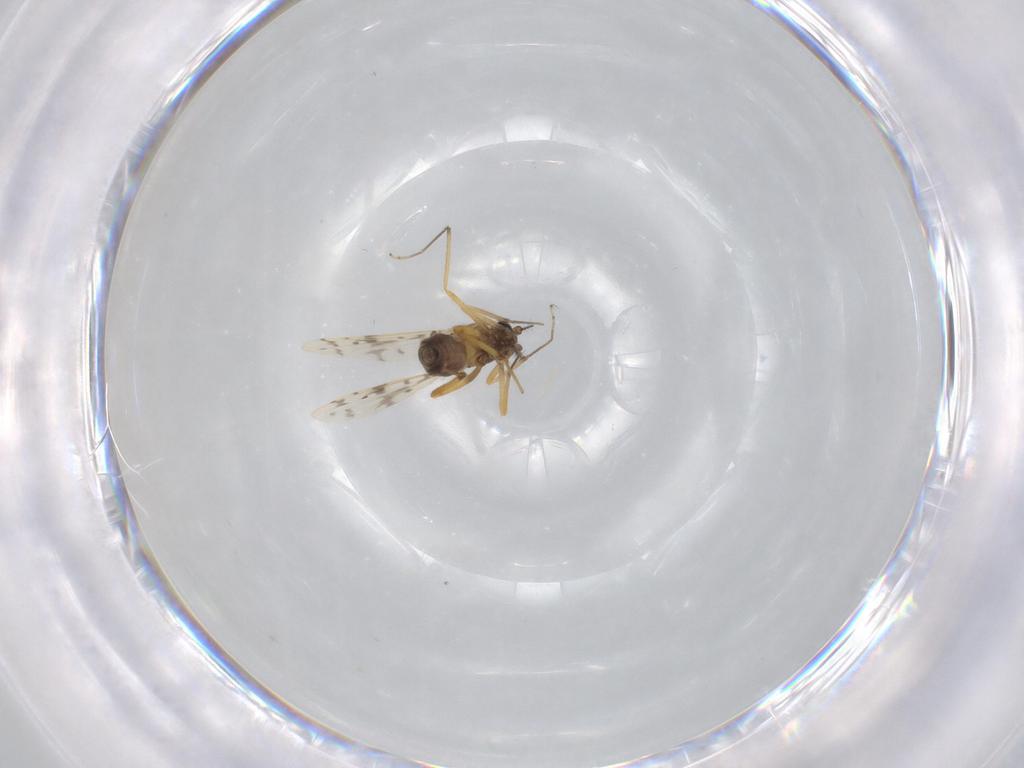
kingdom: Animalia
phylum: Arthropoda
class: Insecta
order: Diptera
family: Ceratopogonidae
